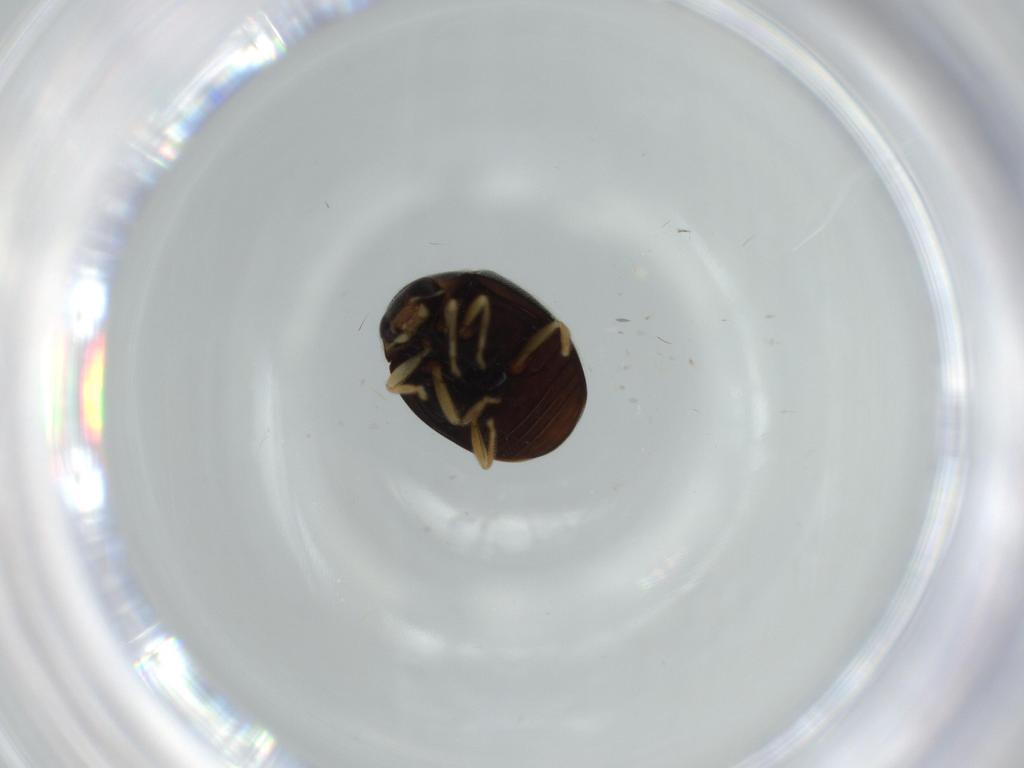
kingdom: Animalia
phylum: Arthropoda
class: Insecta
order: Coleoptera
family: Coccinellidae
